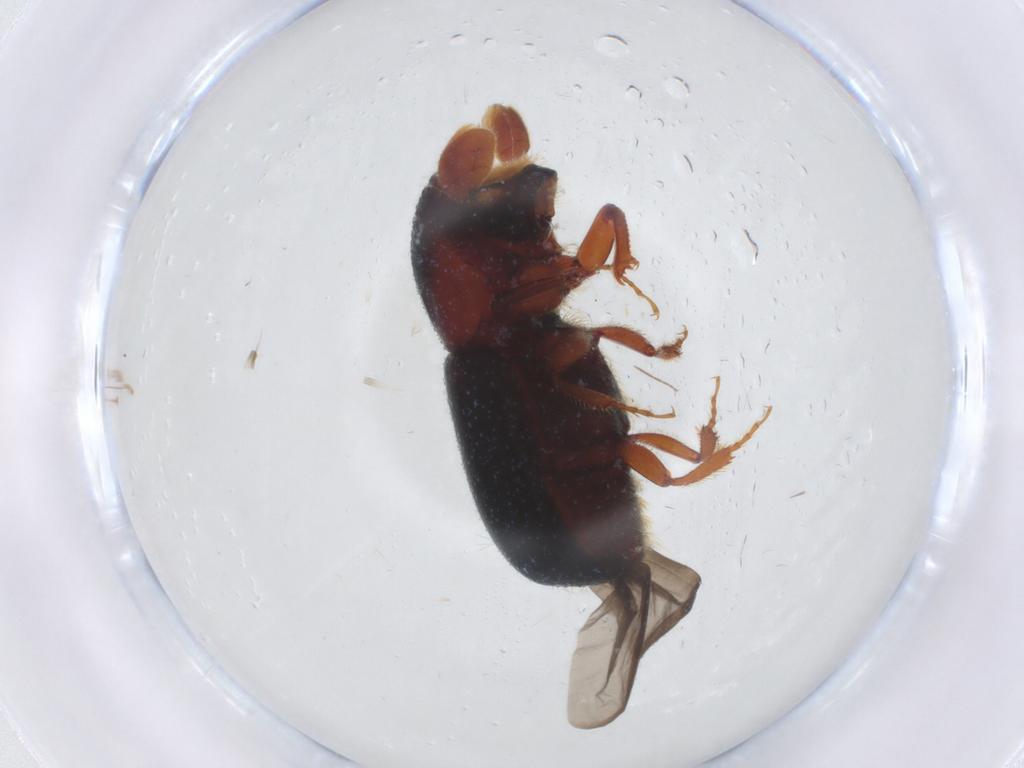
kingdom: Animalia
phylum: Arthropoda
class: Insecta
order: Coleoptera
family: Curculionidae
